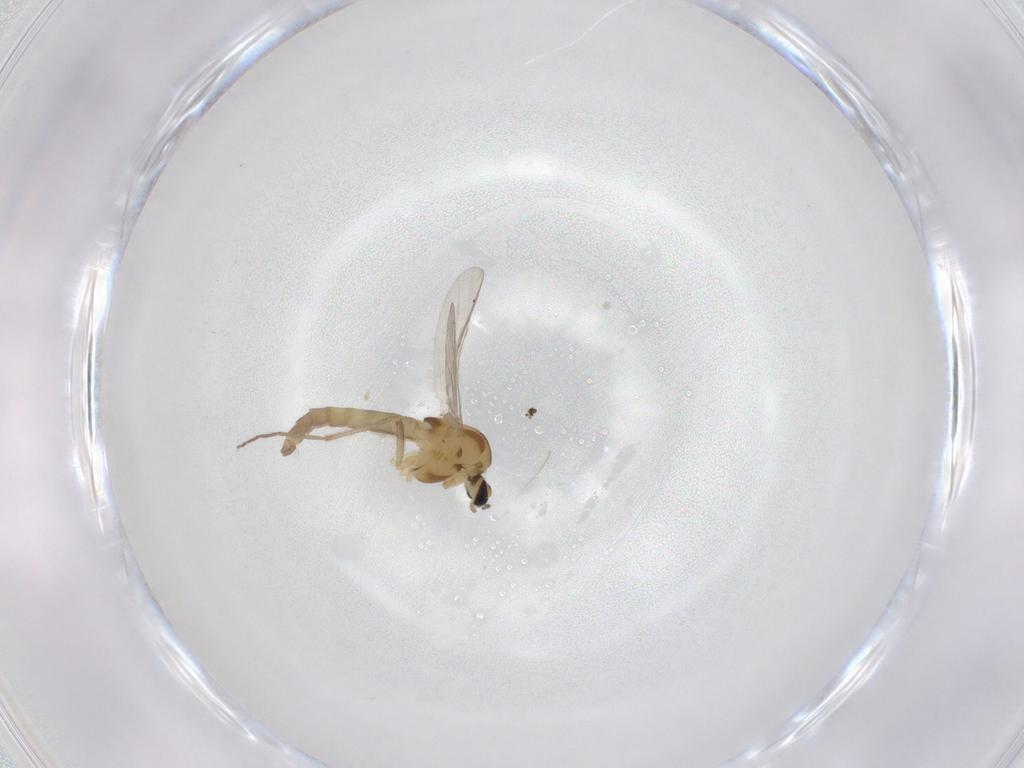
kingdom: Animalia
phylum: Arthropoda
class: Insecta
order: Diptera
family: Chironomidae
